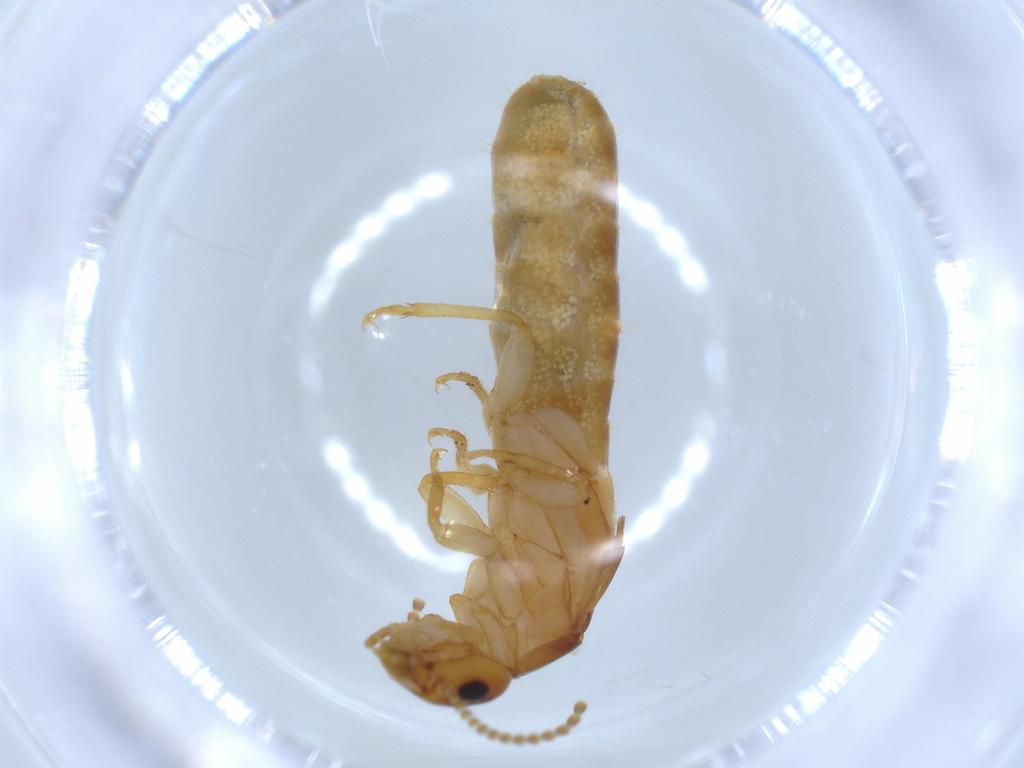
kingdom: Animalia
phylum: Arthropoda
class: Insecta
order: Blattodea
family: Kalotermitidae
